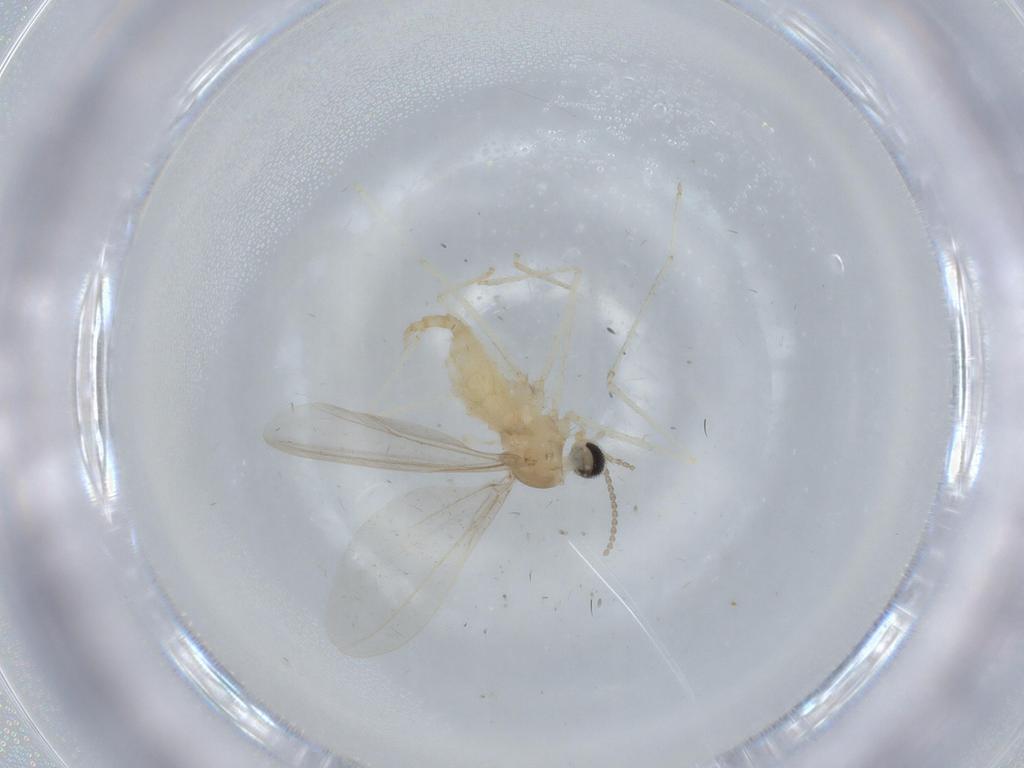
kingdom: Animalia
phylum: Arthropoda
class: Insecta
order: Diptera
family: Cecidomyiidae
